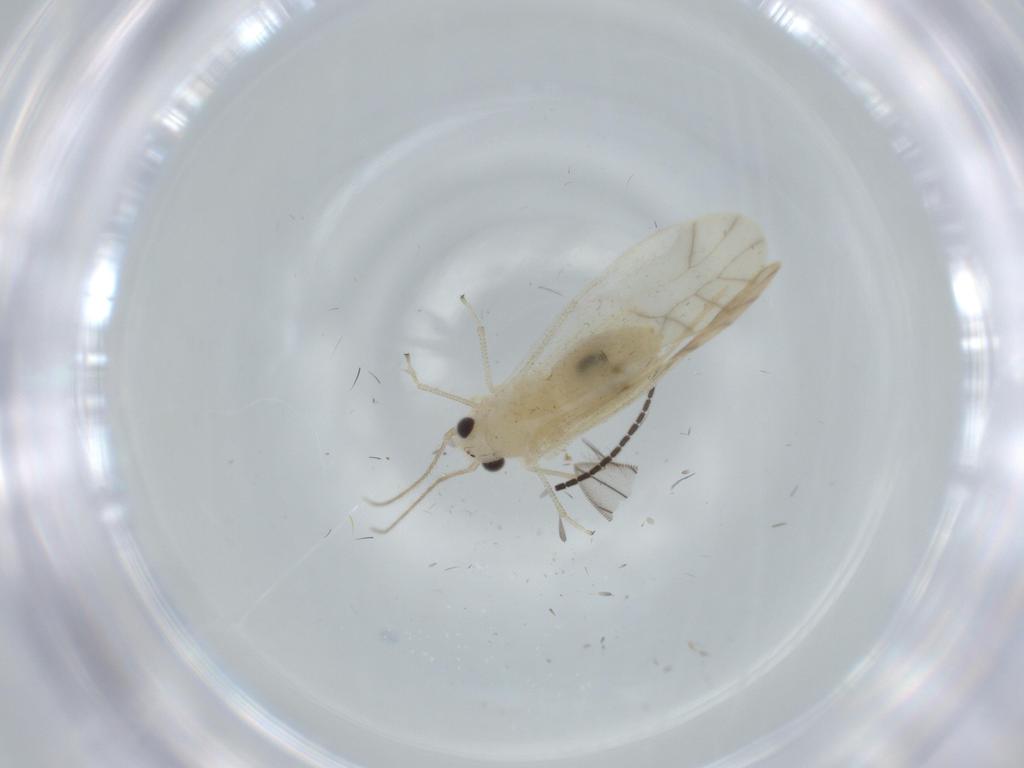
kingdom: Animalia
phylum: Arthropoda
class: Insecta
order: Psocodea
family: Caeciliusidae
